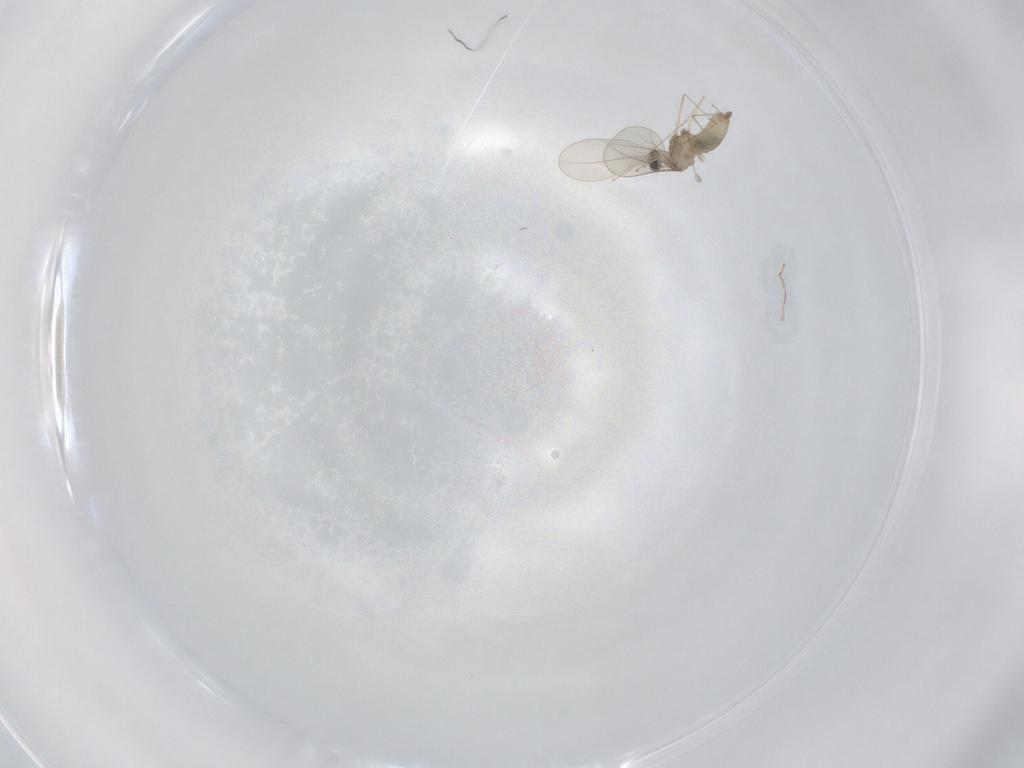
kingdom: Animalia
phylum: Arthropoda
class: Insecta
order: Diptera
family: Cecidomyiidae
